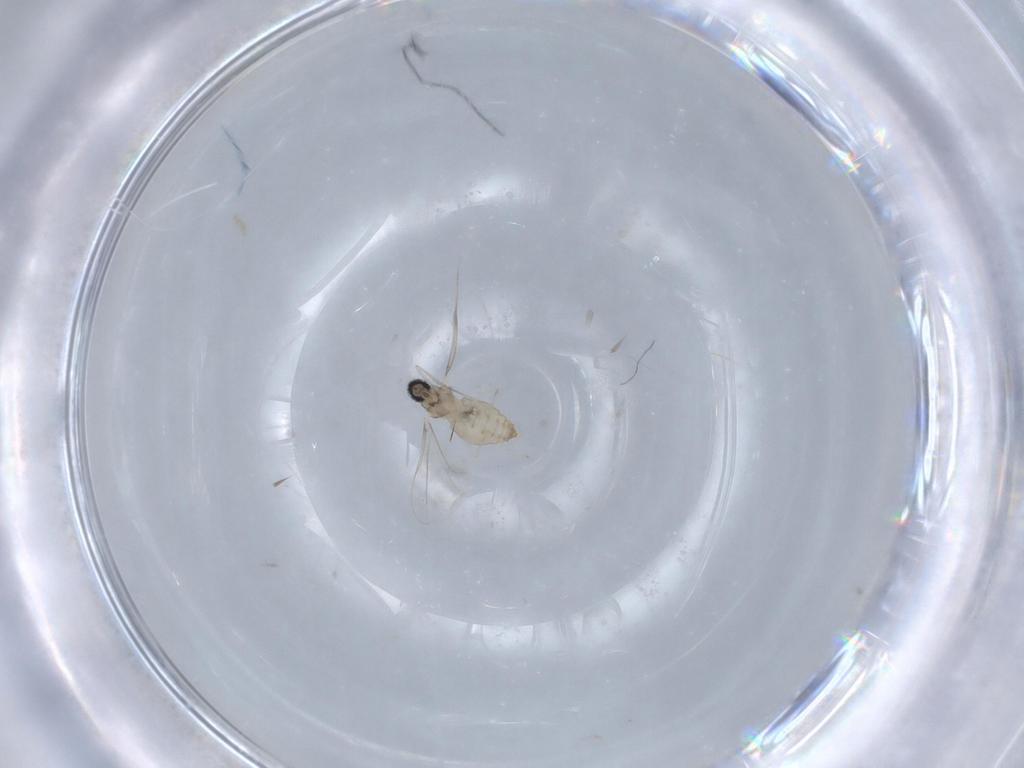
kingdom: Animalia
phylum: Arthropoda
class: Insecta
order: Diptera
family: Cecidomyiidae
